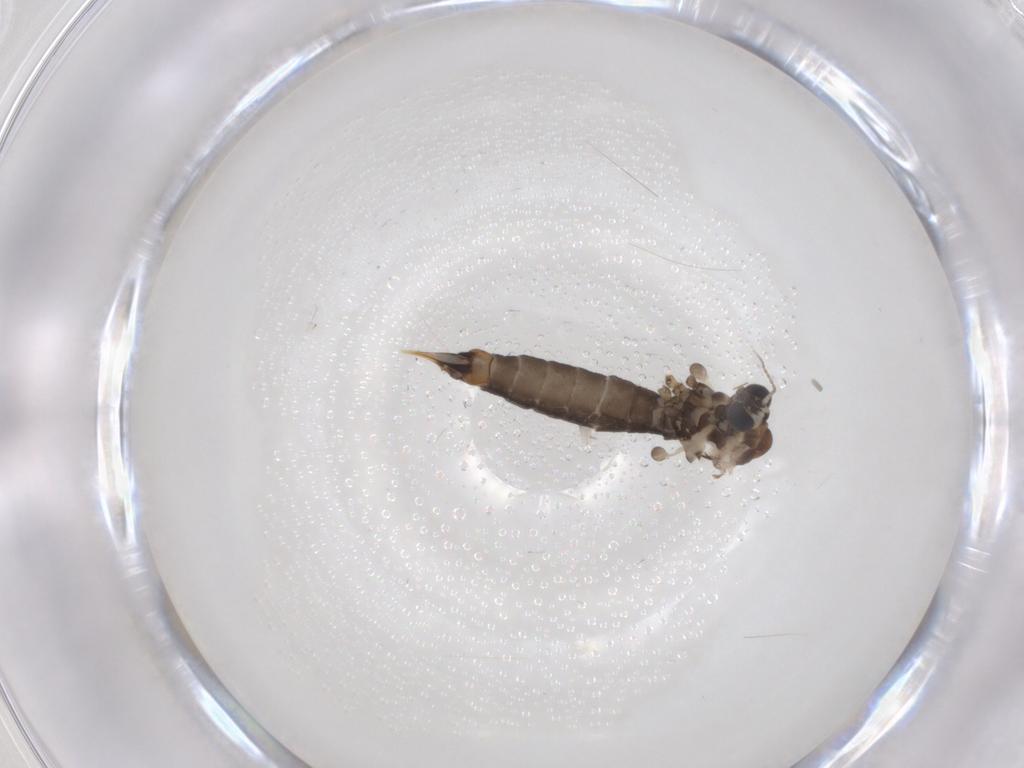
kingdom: Animalia
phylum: Arthropoda
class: Insecta
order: Diptera
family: Limoniidae
